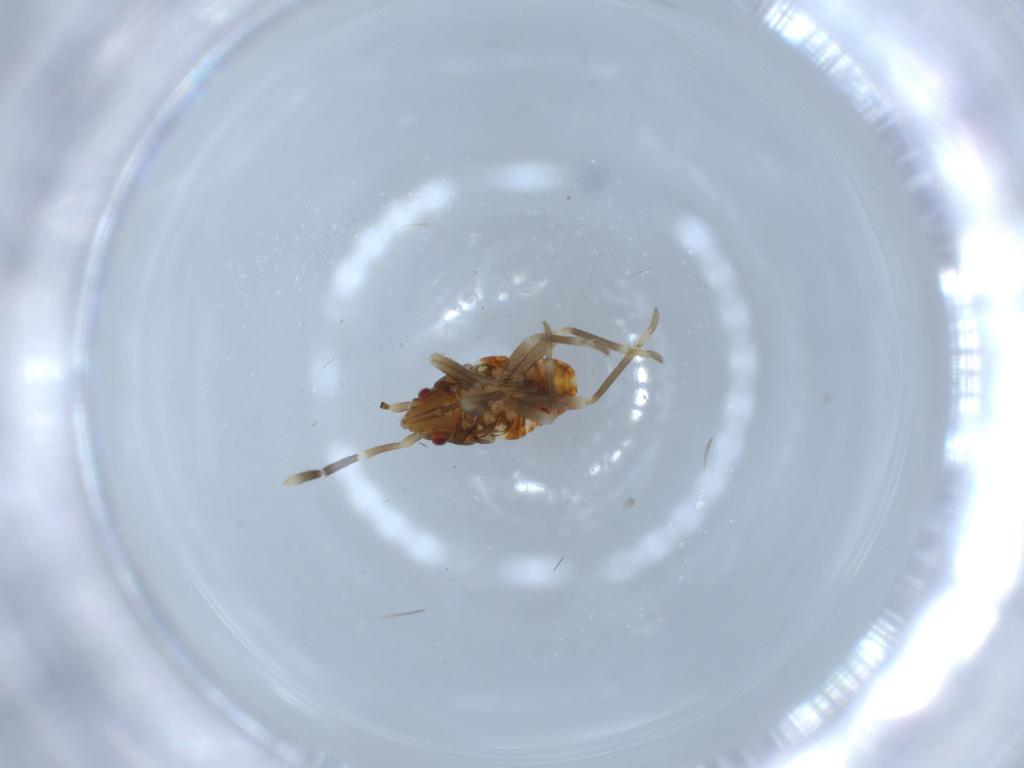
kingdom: Animalia
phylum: Arthropoda
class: Insecta
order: Hemiptera
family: Rhyparochromidae
